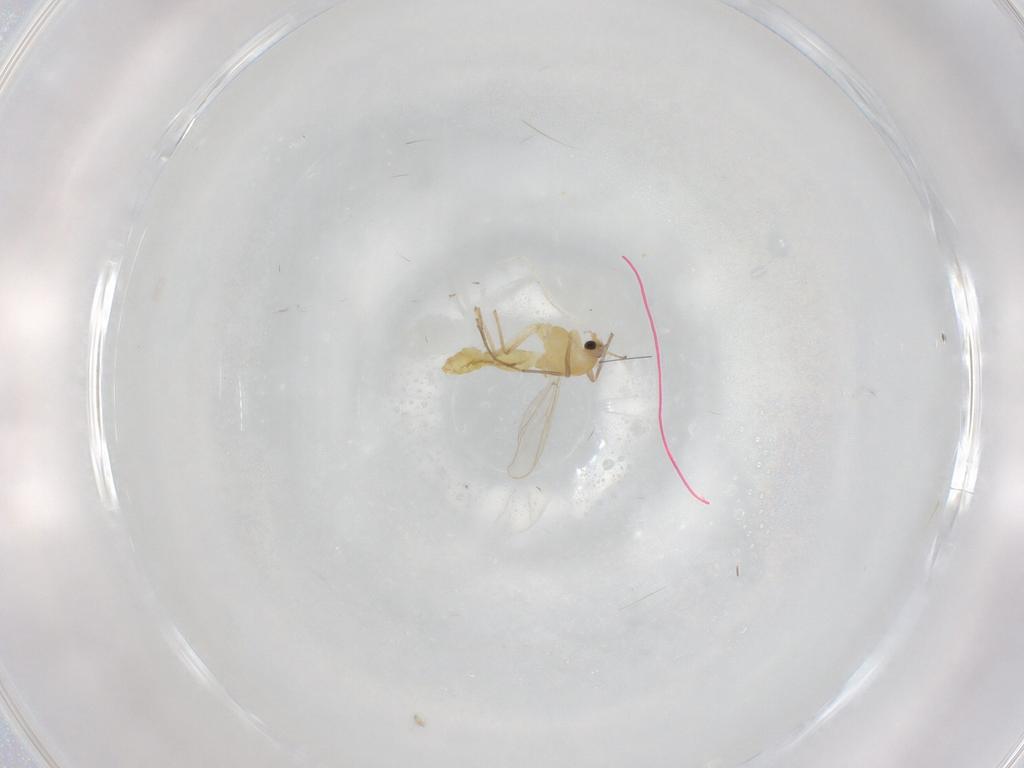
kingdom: Animalia
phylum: Arthropoda
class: Insecta
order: Diptera
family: Chironomidae
